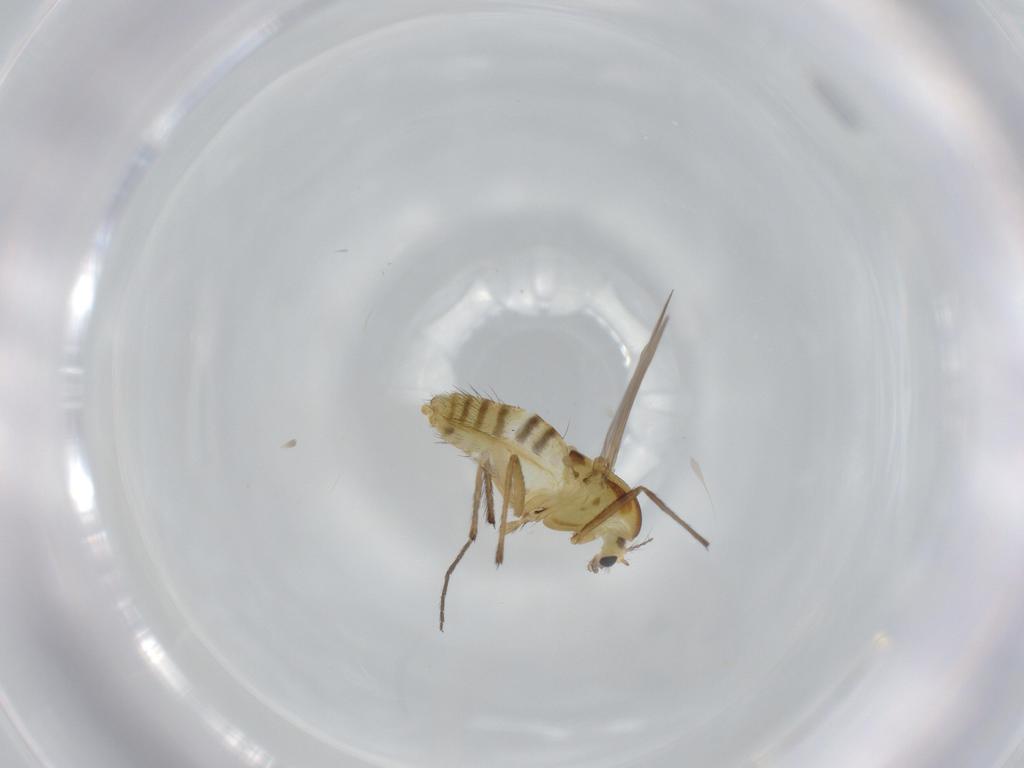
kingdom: Animalia
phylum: Arthropoda
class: Insecta
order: Diptera
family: Chironomidae
